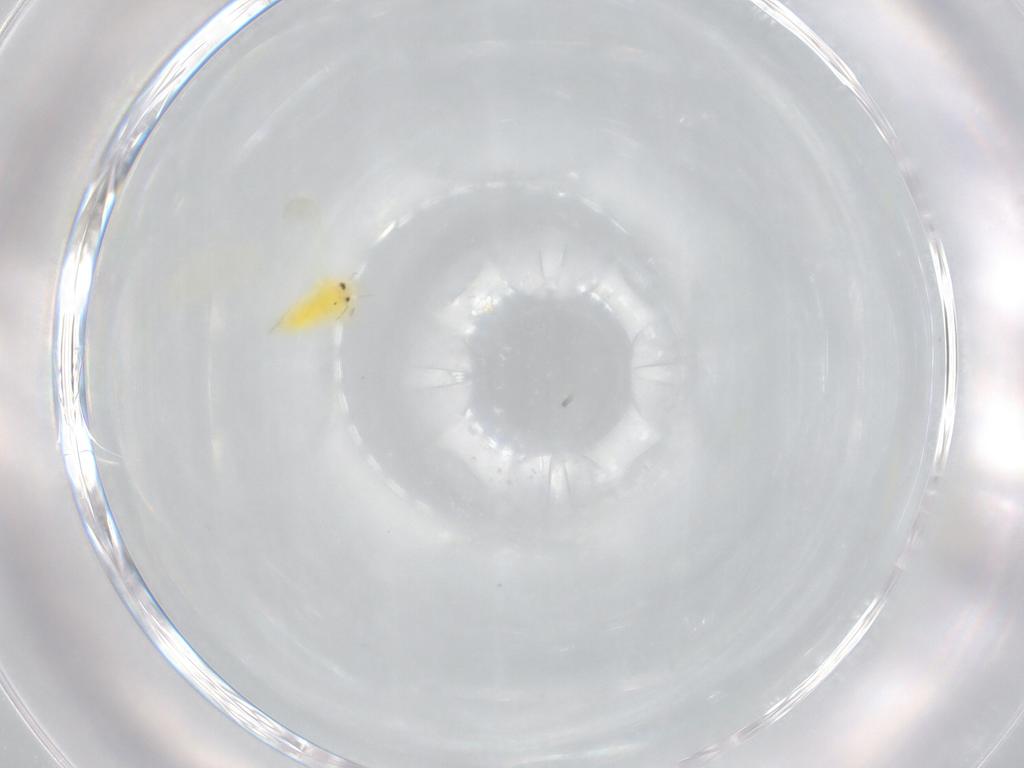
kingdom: Animalia
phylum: Arthropoda
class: Insecta
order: Hemiptera
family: Aleyrodidae
